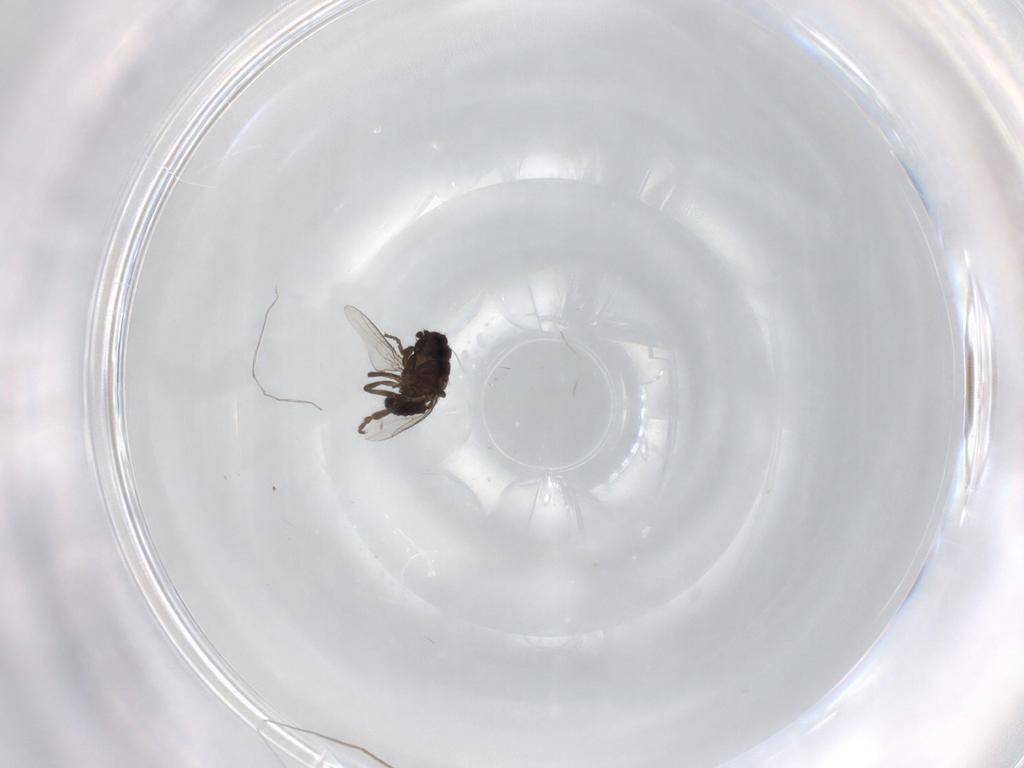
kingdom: Animalia
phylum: Arthropoda
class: Insecta
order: Diptera
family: Sphaeroceridae
